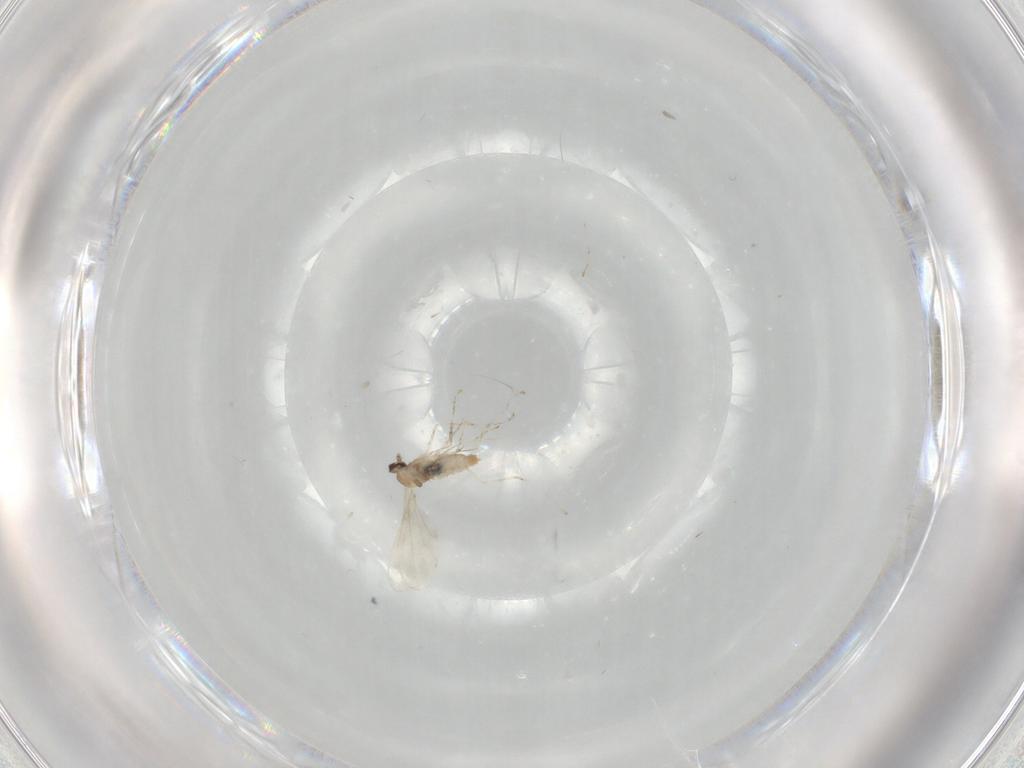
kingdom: Animalia
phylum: Arthropoda
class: Insecta
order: Diptera
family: Cecidomyiidae
